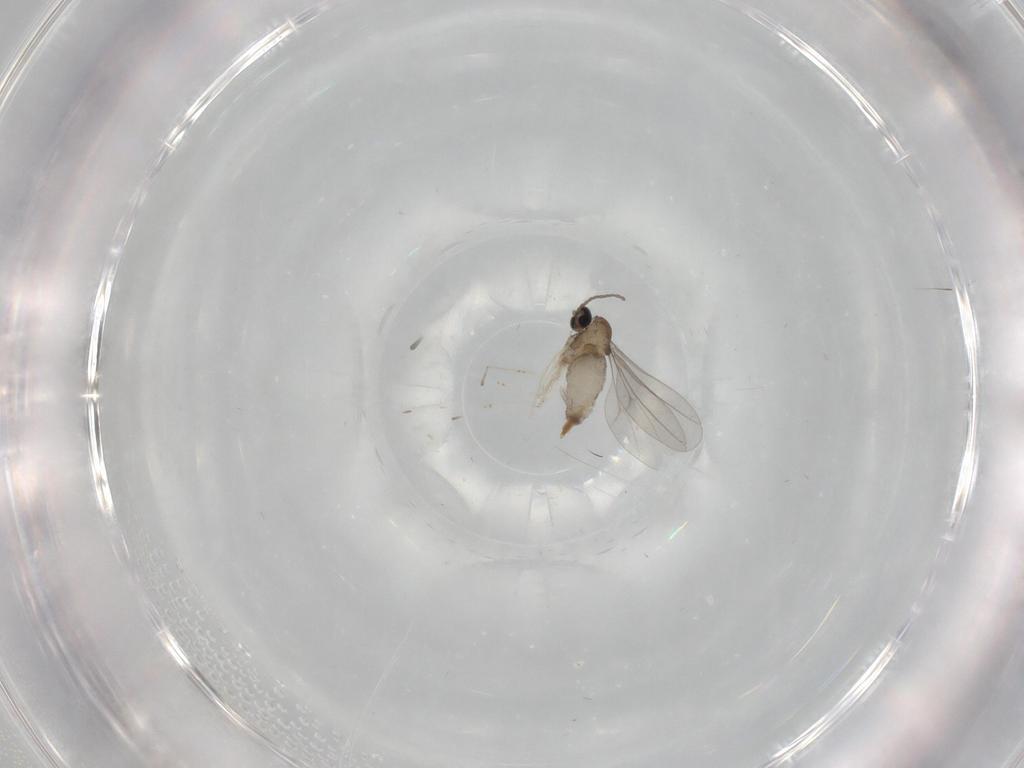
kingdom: Animalia
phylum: Arthropoda
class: Insecta
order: Diptera
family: Cecidomyiidae
